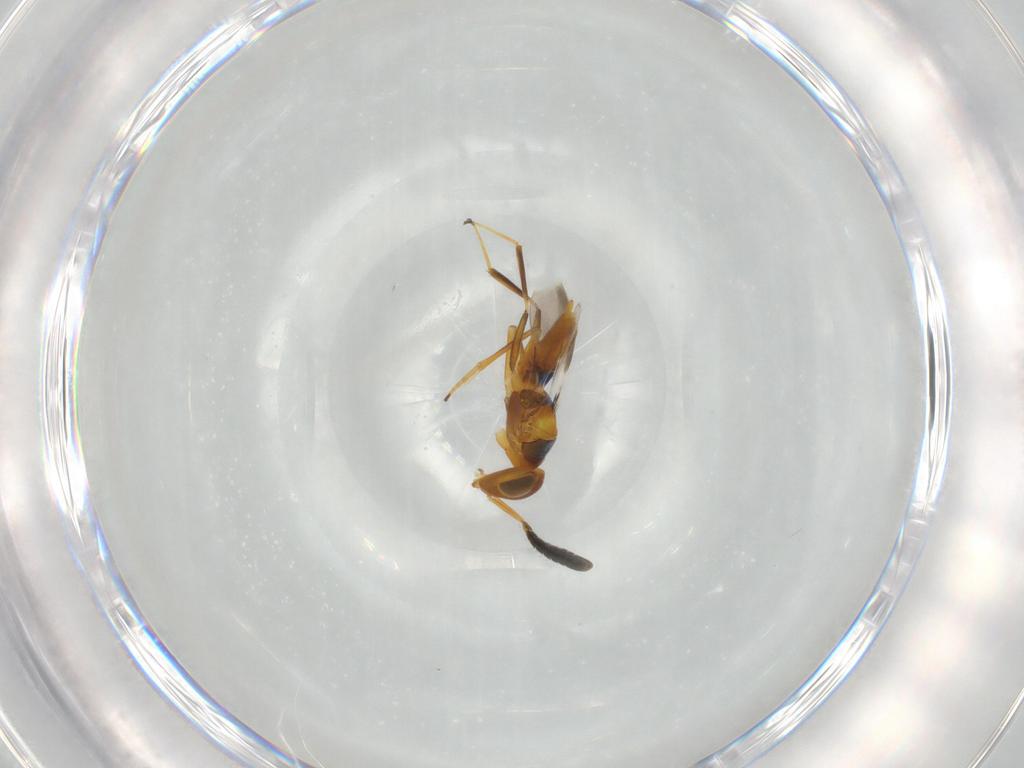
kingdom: Animalia
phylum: Arthropoda
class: Insecta
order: Hymenoptera
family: Encyrtidae
